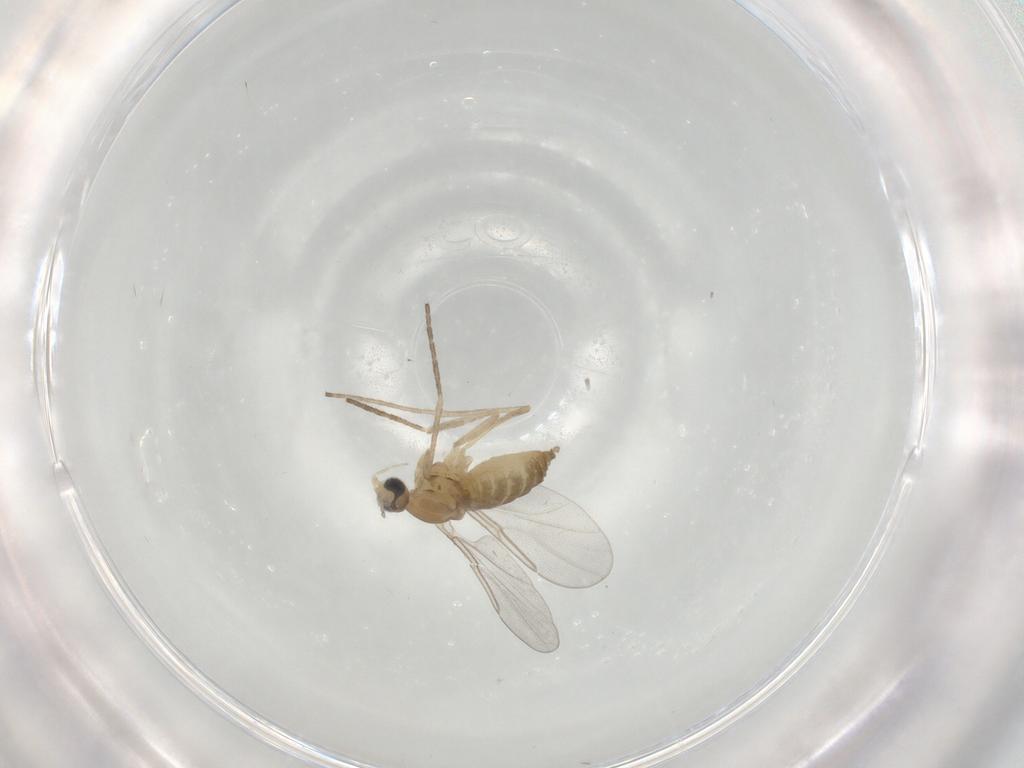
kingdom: Animalia
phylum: Arthropoda
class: Insecta
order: Diptera
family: Cecidomyiidae
